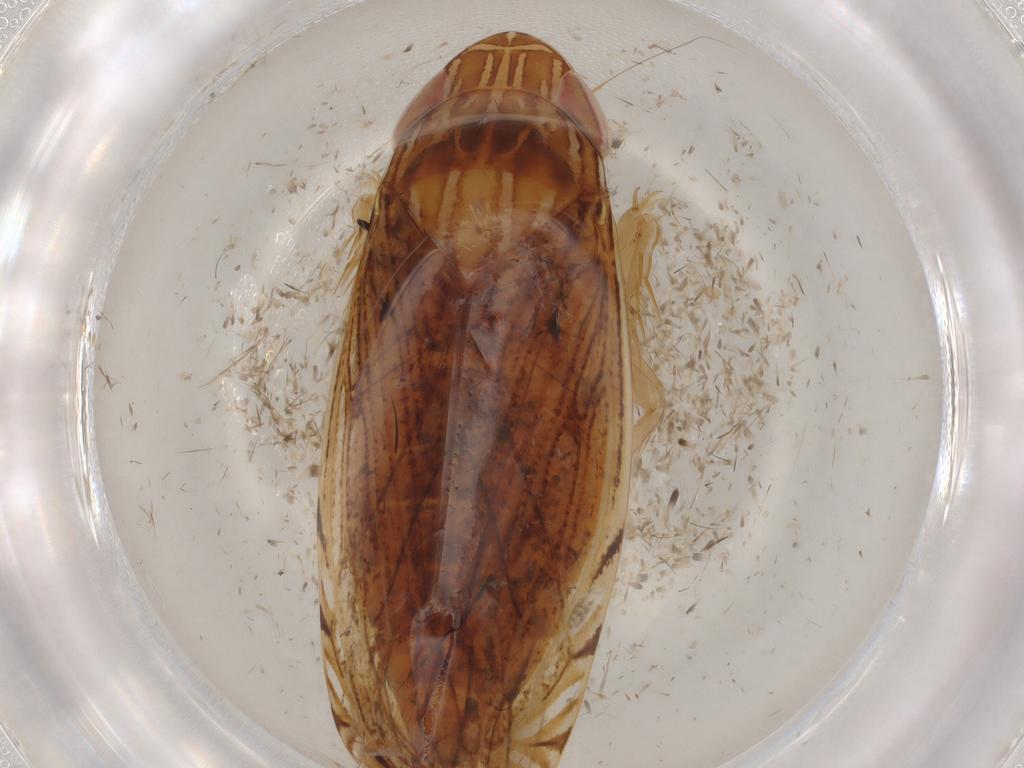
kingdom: Animalia
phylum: Arthropoda
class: Insecta
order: Hemiptera
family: Cicadellidae
